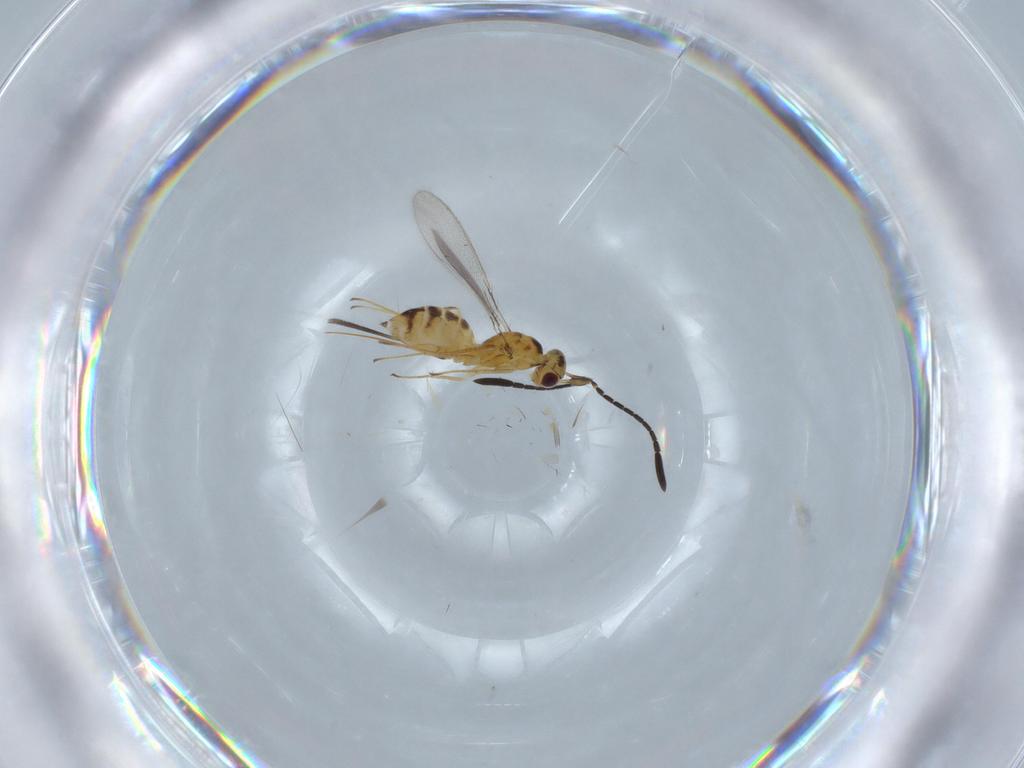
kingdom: Animalia
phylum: Arthropoda
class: Insecta
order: Hymenoptera
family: Mymaridae
